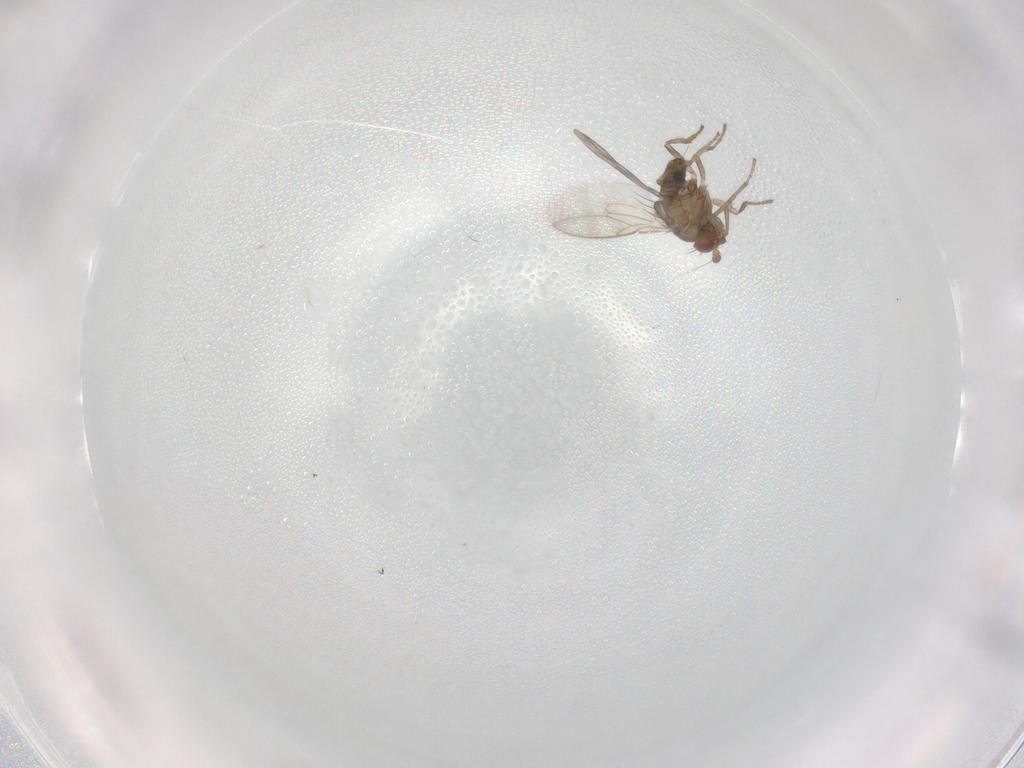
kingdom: Animalia
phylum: Arthropoda
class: Insecta
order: Diptera
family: Sphaeroceridae
